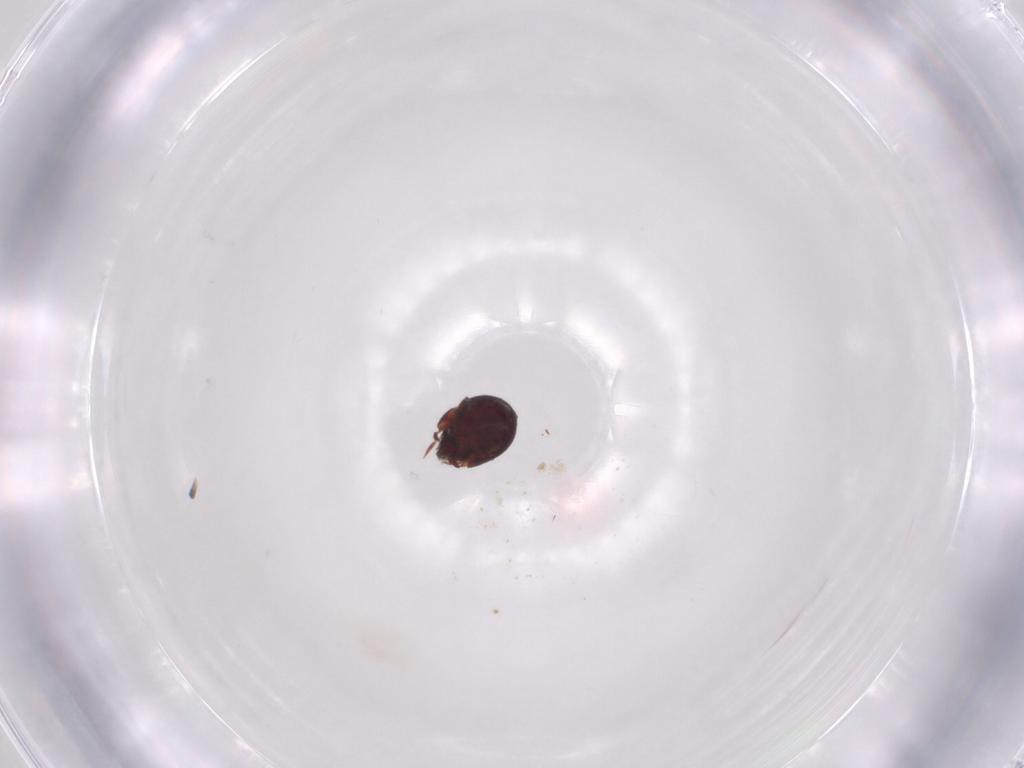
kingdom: Animalia
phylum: Arthropoda
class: Arachnida
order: Sarcoptiformes
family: Humerobatidae
